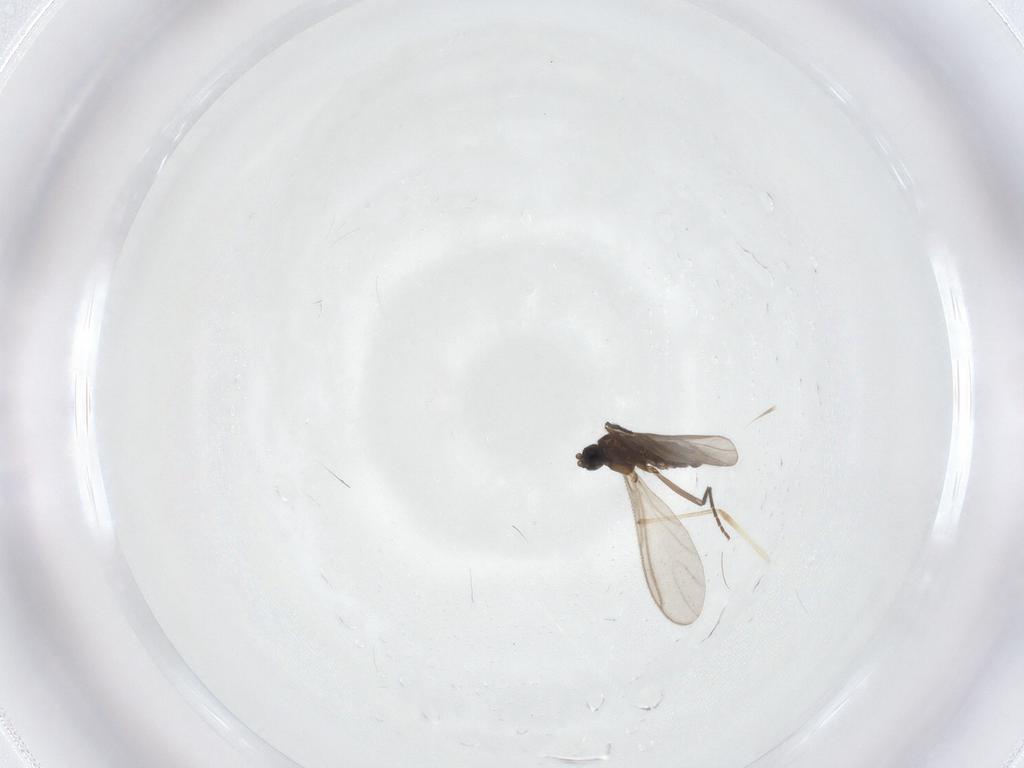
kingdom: Animalia
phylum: Arthropoda
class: Insecta
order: Diptera
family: Sciaridae
